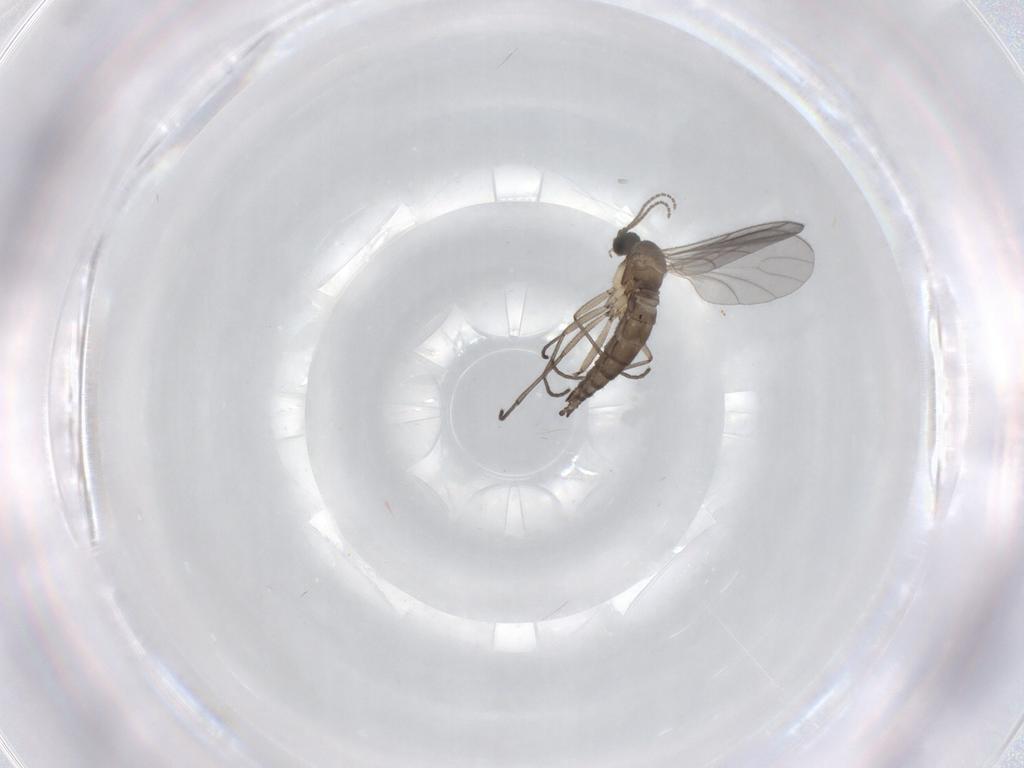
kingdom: Animalia
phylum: Arthropoda
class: Insecta
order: Diptera
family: Sciaridae
